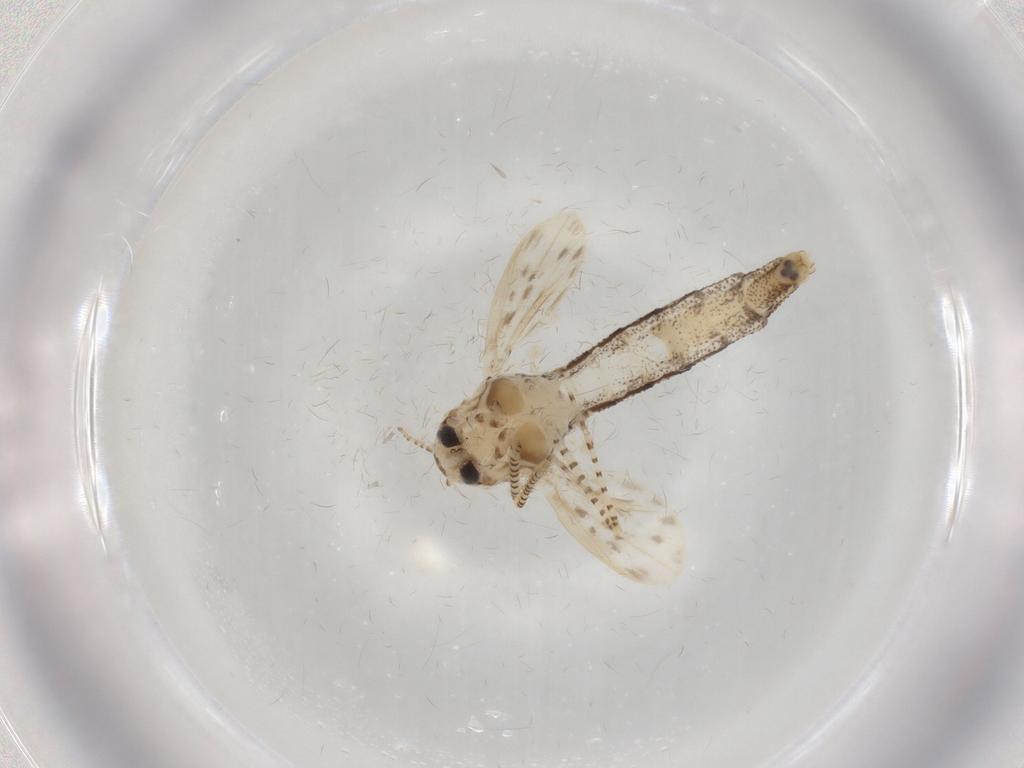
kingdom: Animalia
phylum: Arthropoda
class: Insecta
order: Diptera
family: Chaoboridae
